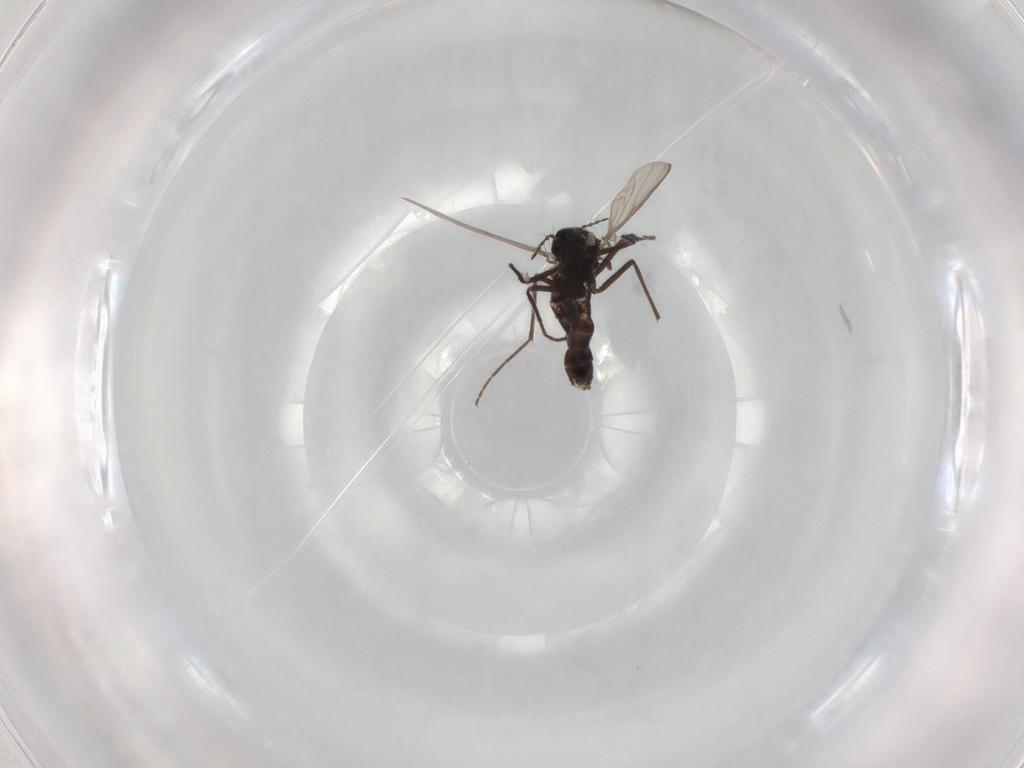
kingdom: Animalia
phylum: Arthropoda
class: Insecta
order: Diptera
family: Chironomidae
